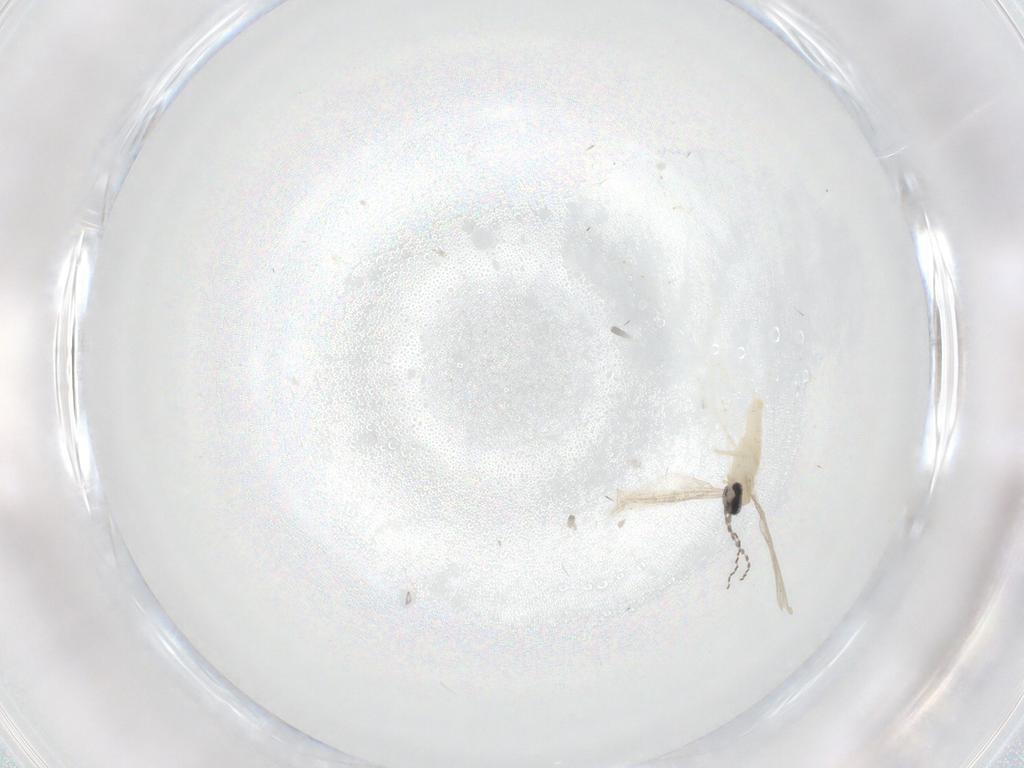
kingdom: Animalia
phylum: Arthropoda
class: Insecta
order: Diptera
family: Cecidomyiidae
